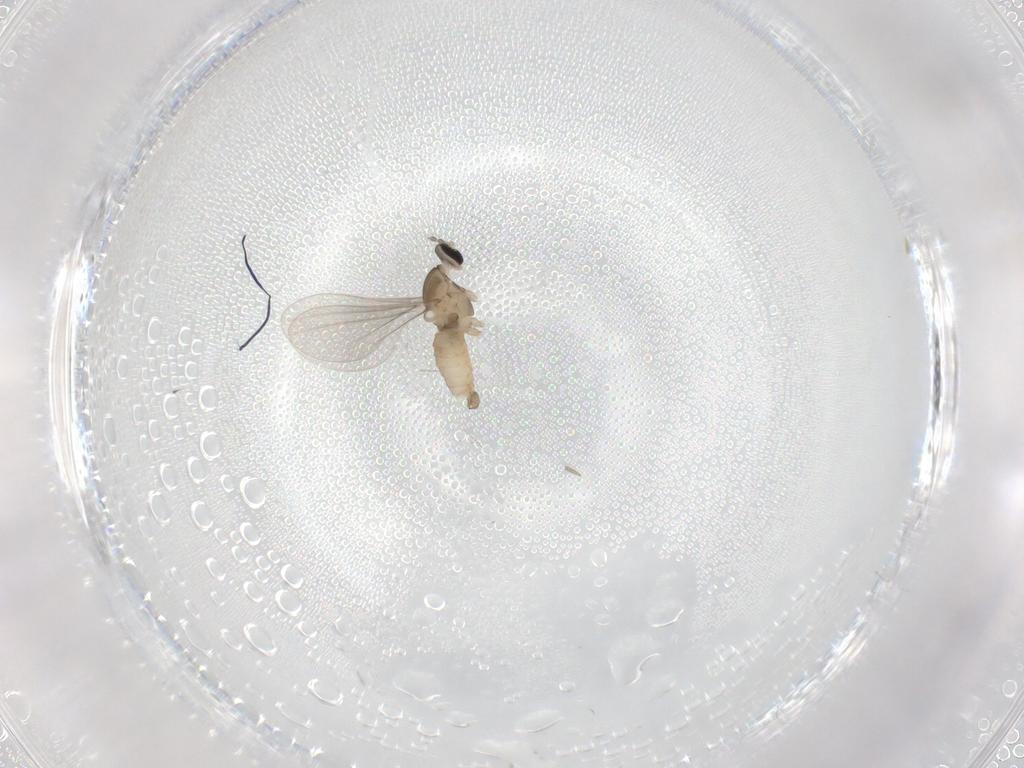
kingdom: Animalia
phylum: Arthropoda
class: Insecta
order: Diptera
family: Cecidomyiidae
